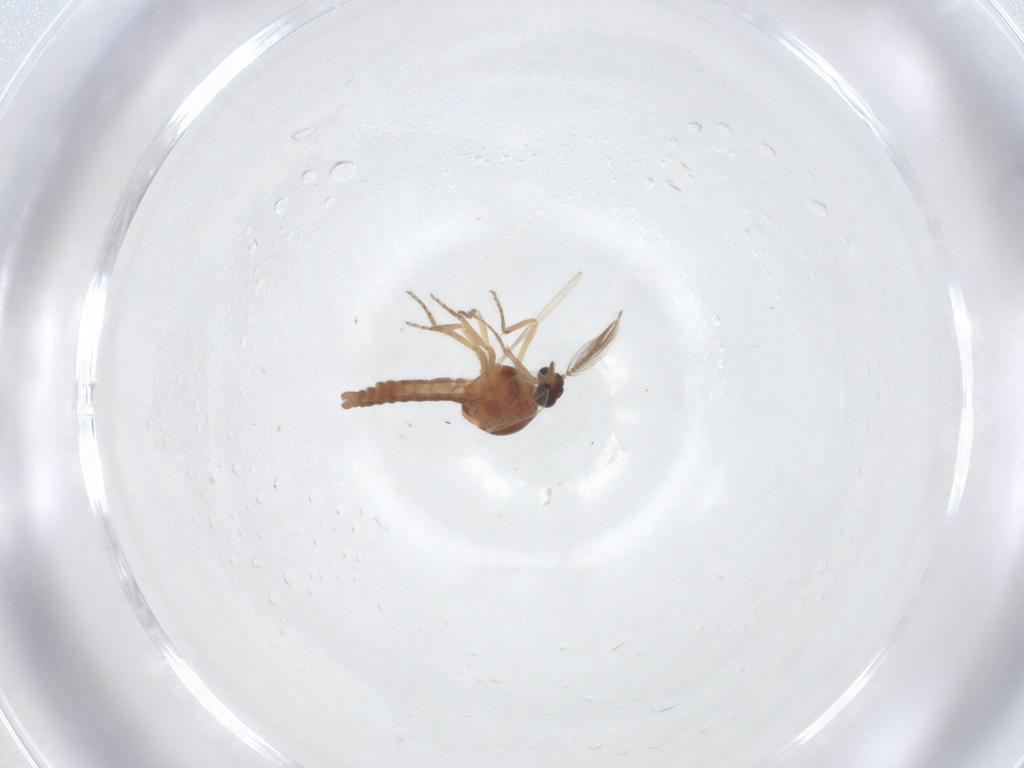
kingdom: Animalia
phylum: Arthropoda
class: Insecta
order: Diptera
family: Ceratopogonidae
